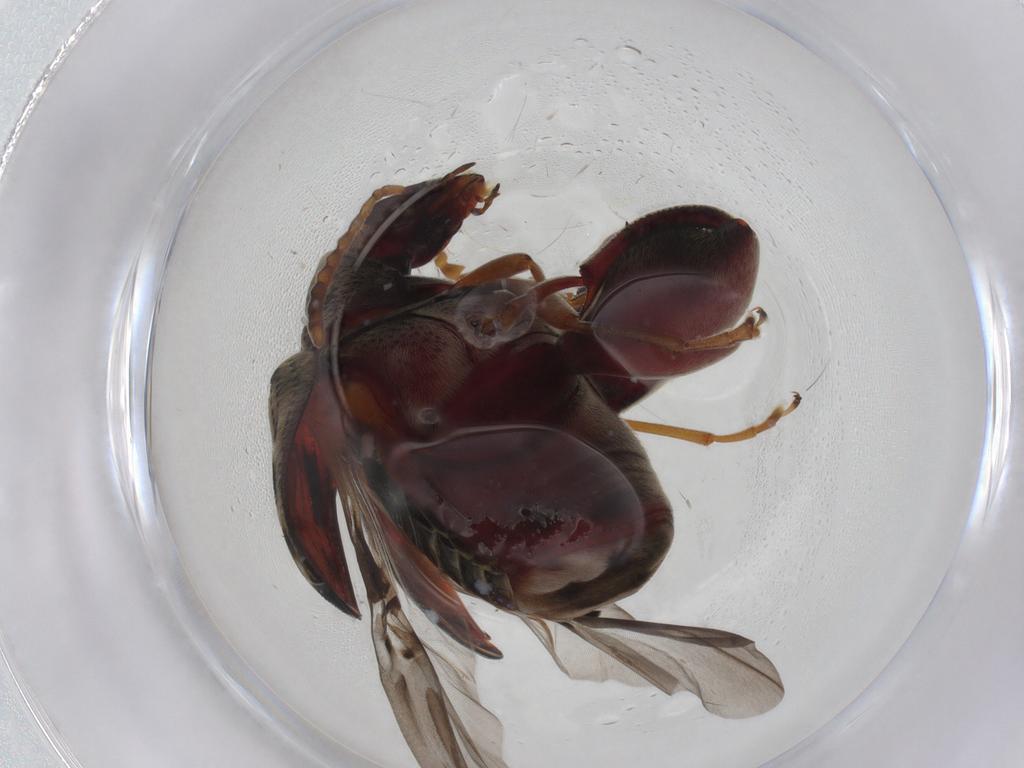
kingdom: Animalia
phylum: Arthropoda
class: Insecta
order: Coleoptera
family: Chrysomelidae
